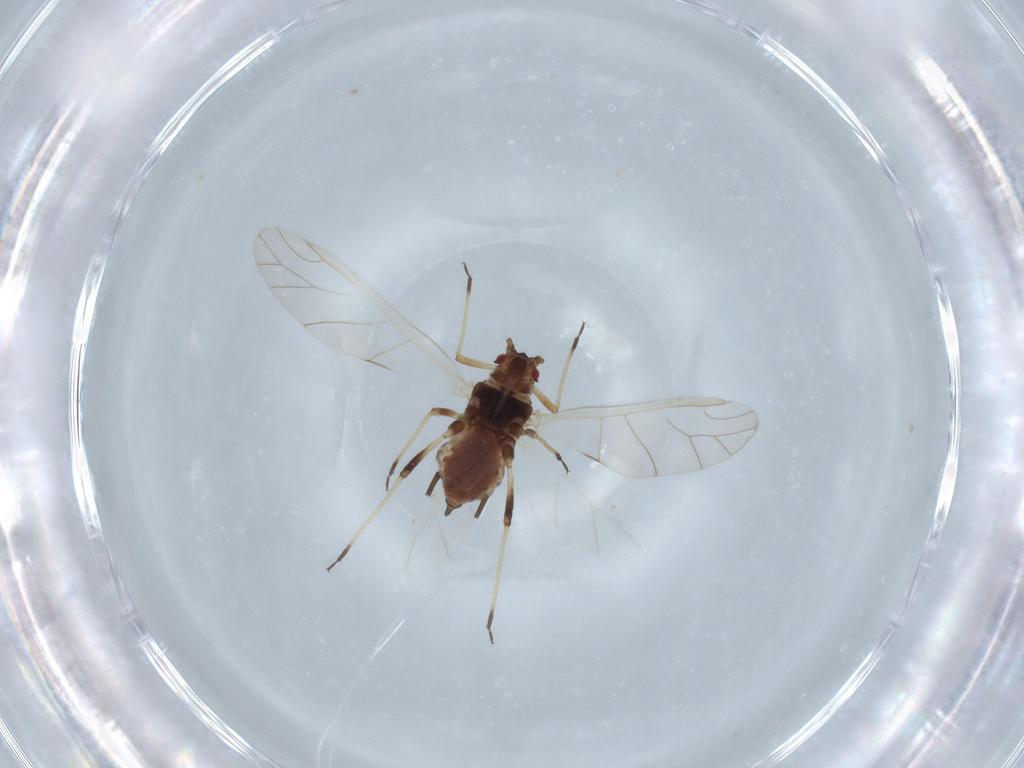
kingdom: Animalia
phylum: Arthropoda
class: Insecta
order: Hemiptera
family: Aphididae
